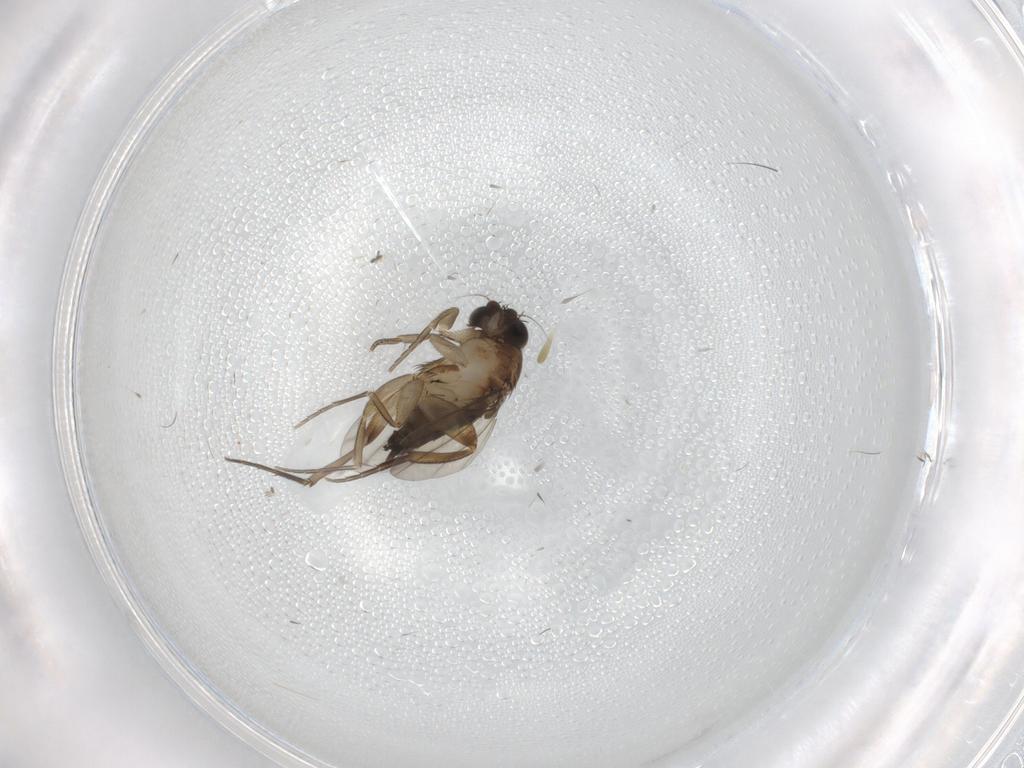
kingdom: Animalia
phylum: Arthropoda
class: Insecta
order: Diptera
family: Phoridae
